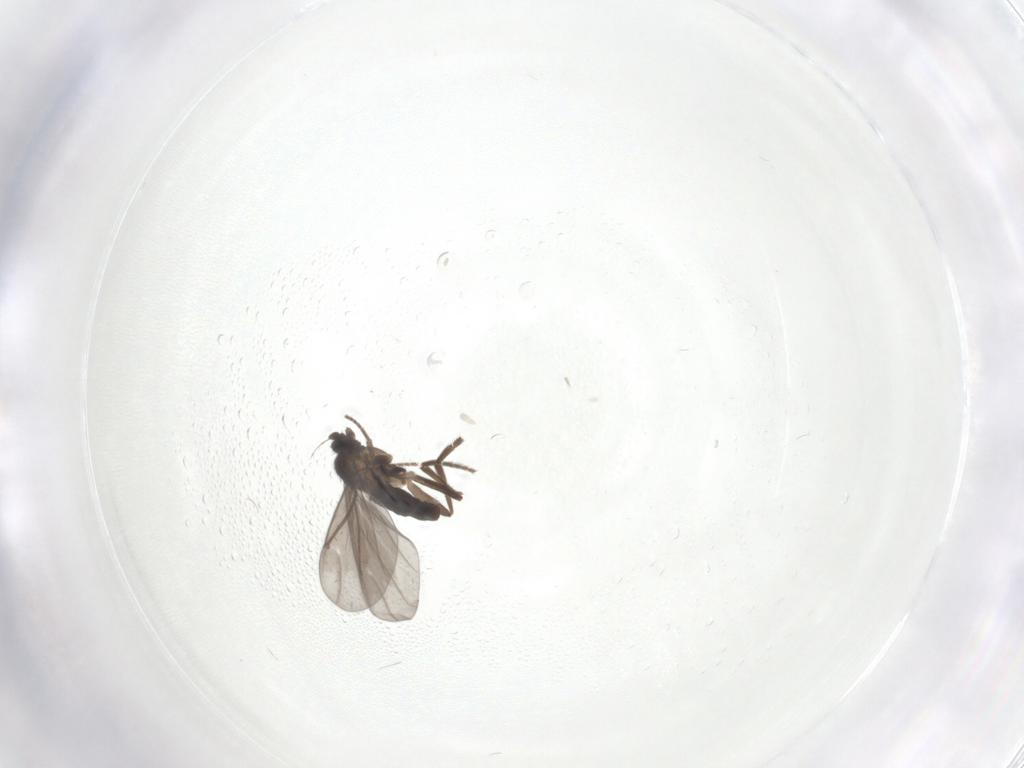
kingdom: Animalia
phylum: Arthropoda
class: Insecta
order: Diptera
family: Phoridae
